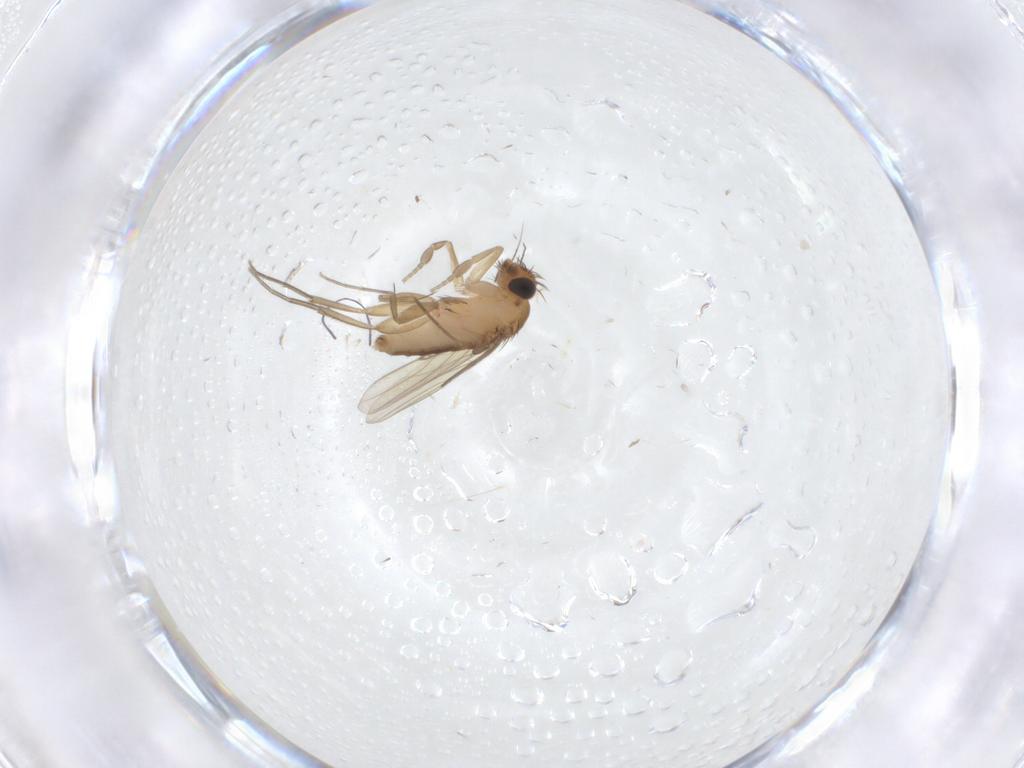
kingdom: Animalia
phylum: Arthropoda
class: Insecta
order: Diptera
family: Phoridae
